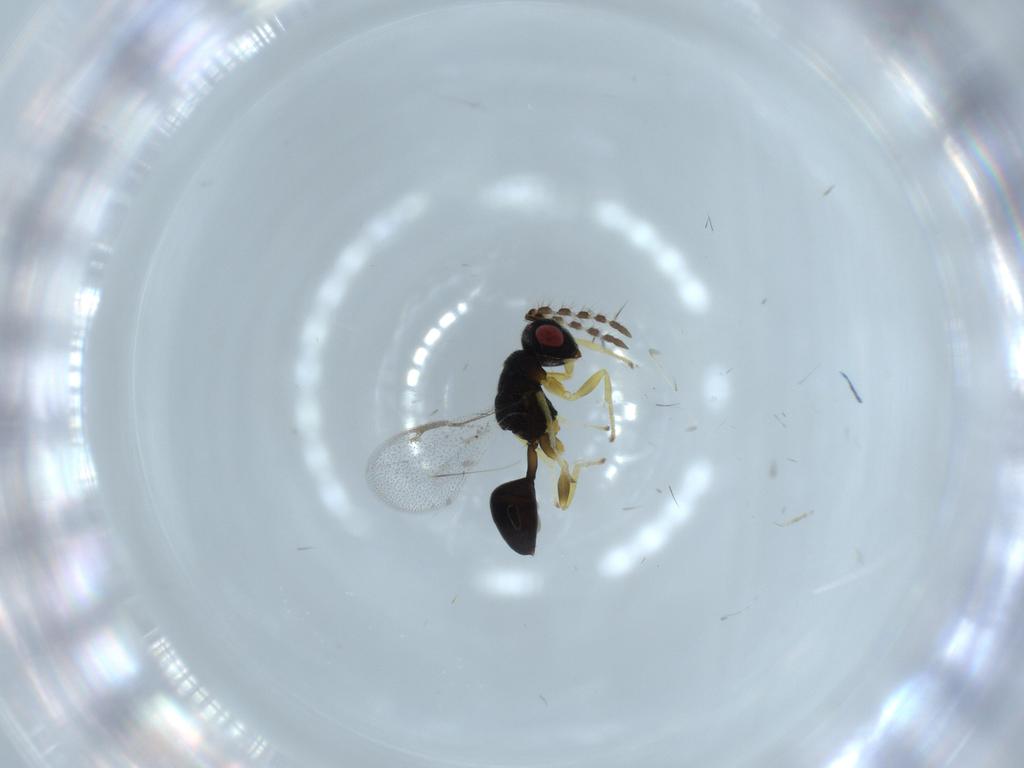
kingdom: Animalia
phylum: Arthropoda
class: Insecta
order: Hymenoptera
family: Eurytomidae
